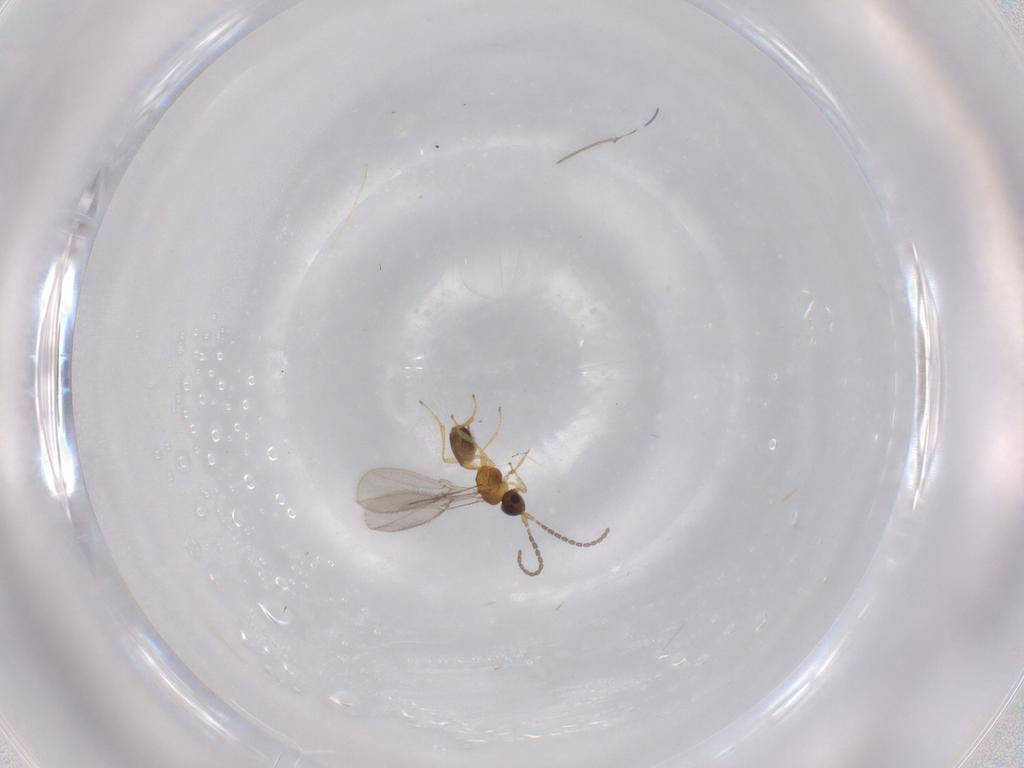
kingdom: Animalia
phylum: Arthropoda
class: Insecta
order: Hymenoptera
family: Braconidae
